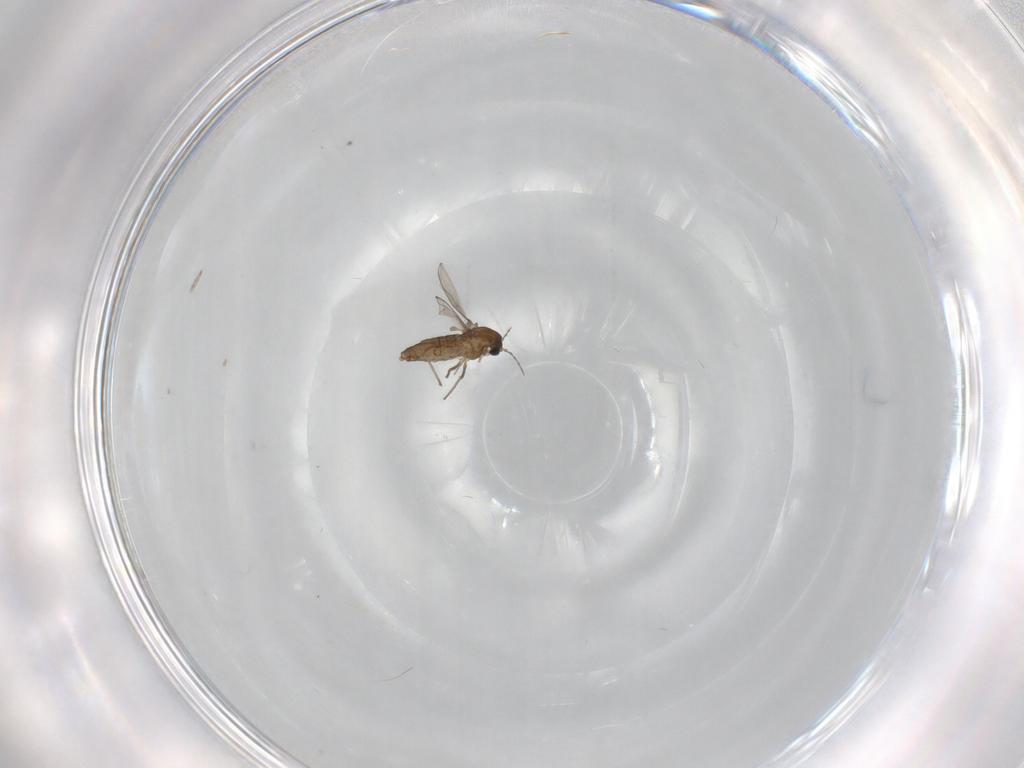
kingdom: Animalia
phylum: Arthropoda
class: Insecta
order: Diptera
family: Chironomidae
